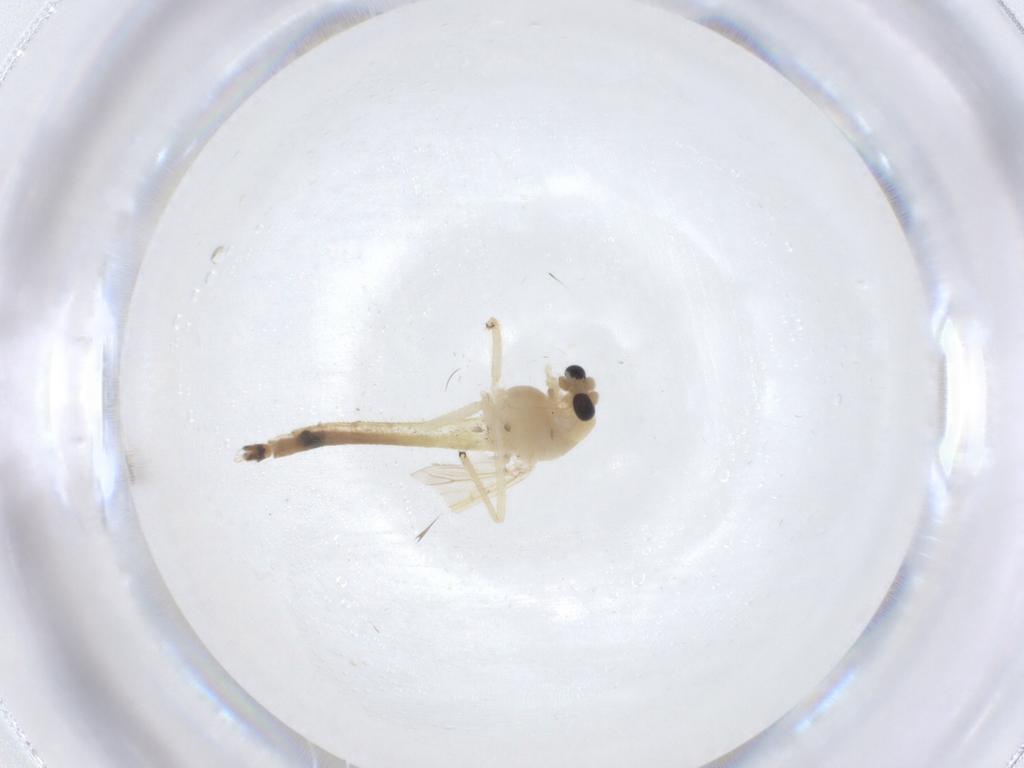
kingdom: Animalia
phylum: Arthropoda
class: Insecta
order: Diptera
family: Chironomidae
